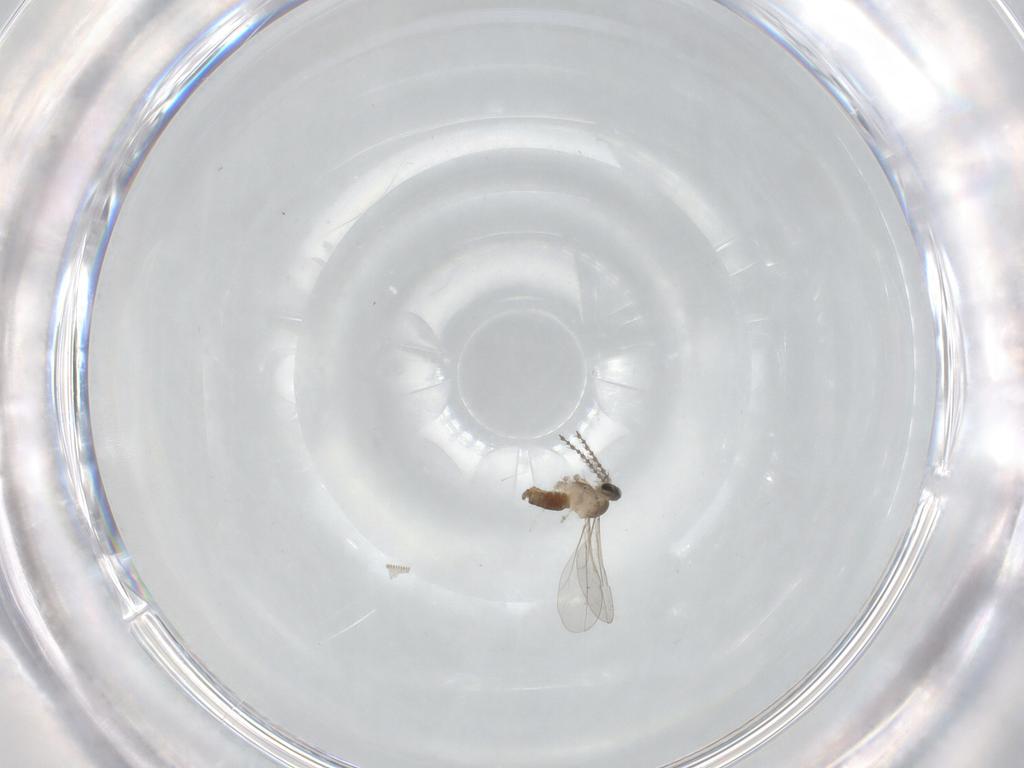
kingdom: Animalia
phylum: Arthropoda
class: Insecta
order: Diptera
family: Cecidomyiidae
